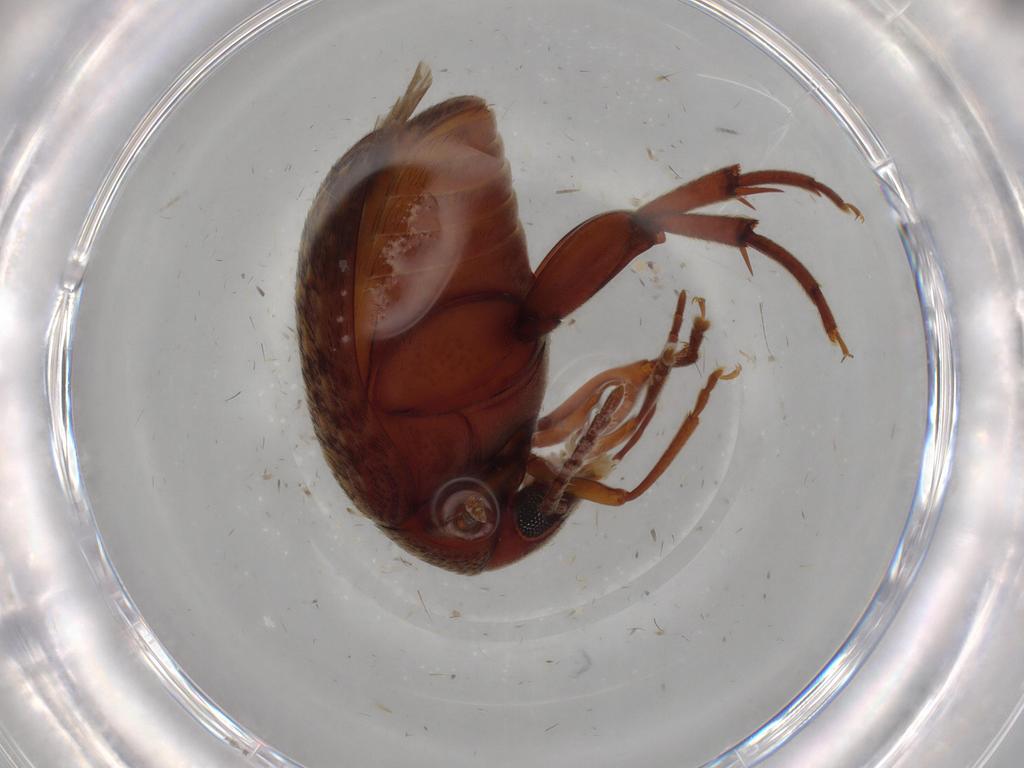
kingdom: Animalia
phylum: Arthropoda
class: Insecta
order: Coleoptera
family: Chrysomelidae
